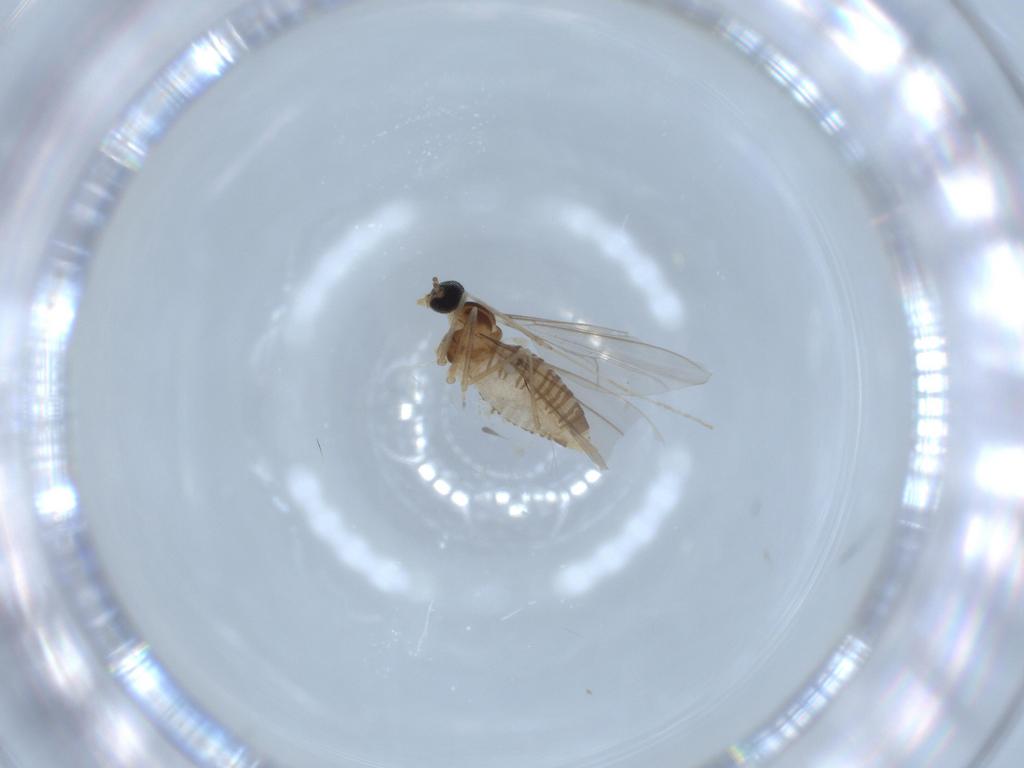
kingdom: Animalia
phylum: Arthropoda
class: Insecta
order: Diptera
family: Cecidomyiidae
